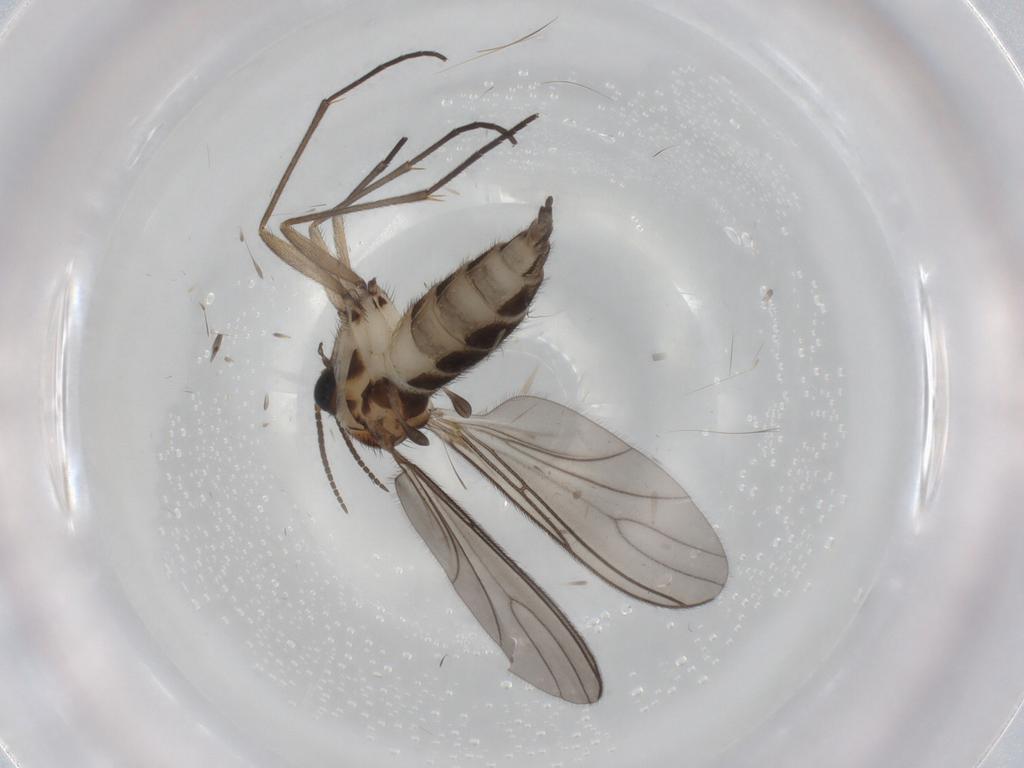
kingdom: Animalia
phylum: Arthropoda
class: Insecta
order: Diptera
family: Sciaridae
